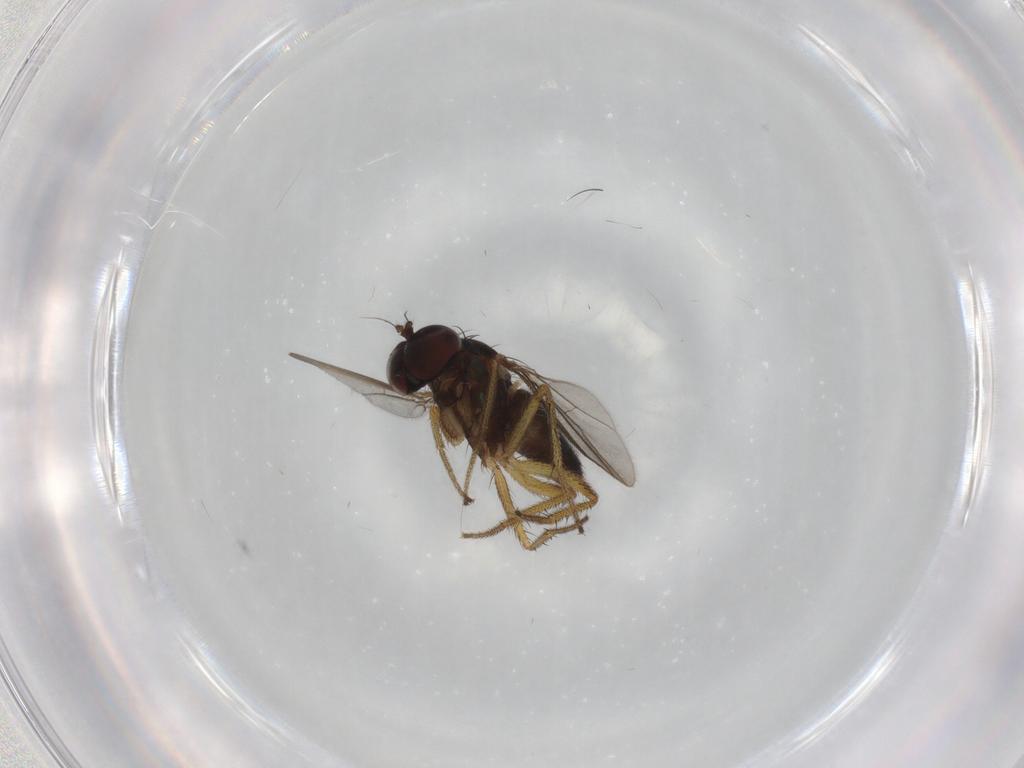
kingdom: Animalia
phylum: Arthropoda
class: Insecta
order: Diptera
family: Dolichopodidae
